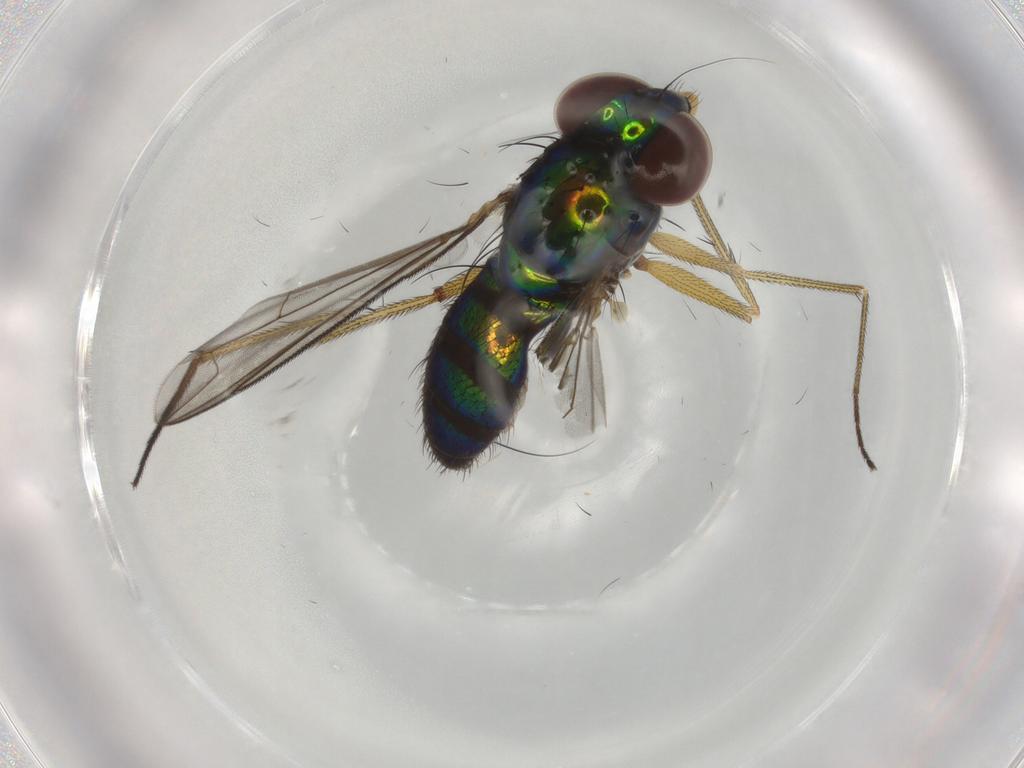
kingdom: Animalia
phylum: Arthropoda
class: Insecta
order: Diptera
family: Dolichopodidae
